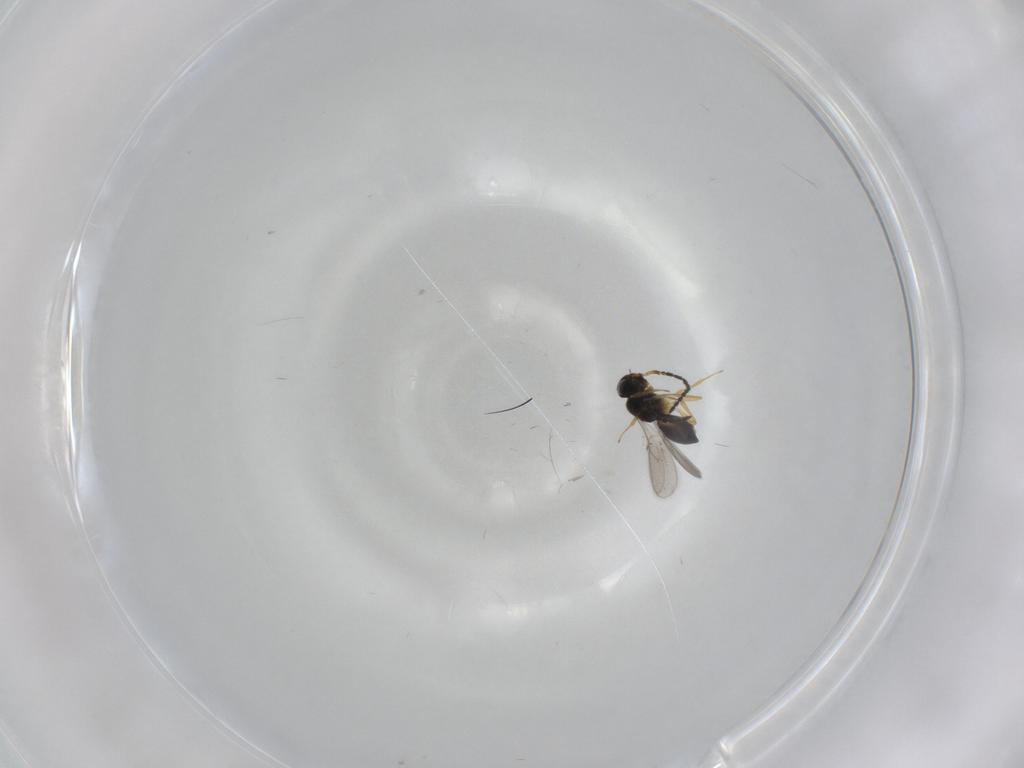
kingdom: Animalia
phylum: Arthropoda
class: Insecta
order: Hymenoptera
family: Scelionidae
